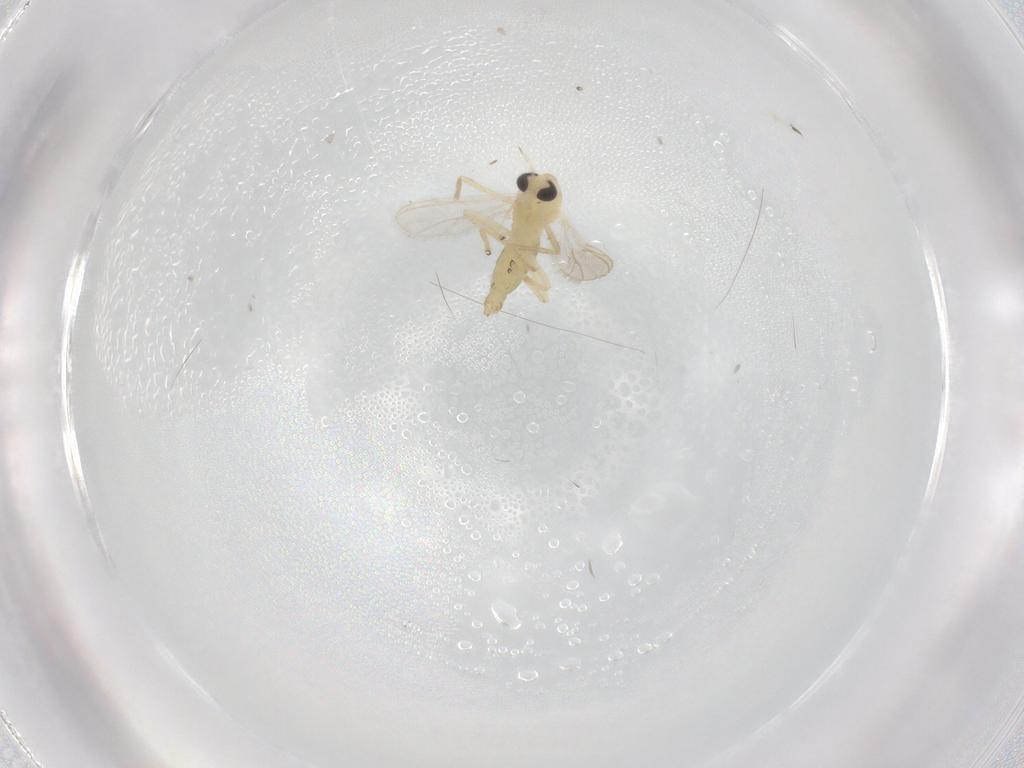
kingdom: Animalia
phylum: Arthropoda
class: Insecta
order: Diptera
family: Chironomidae
